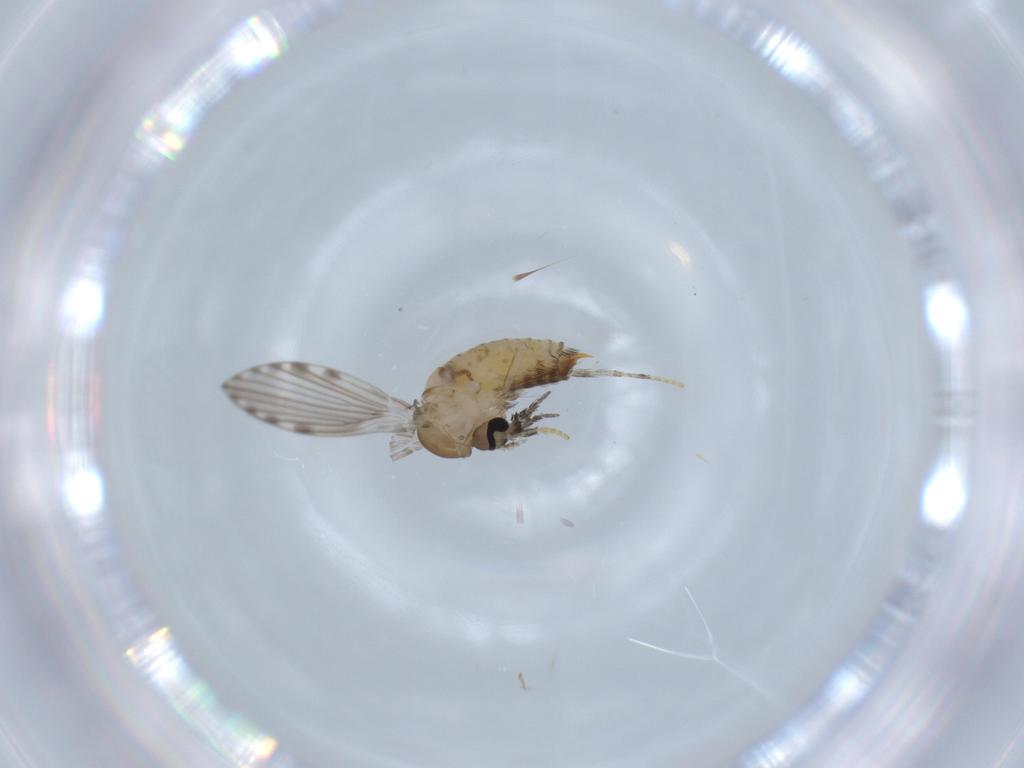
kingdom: Animalia
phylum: Arthropoda
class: Insecta
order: Diptera
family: Psychodidae
